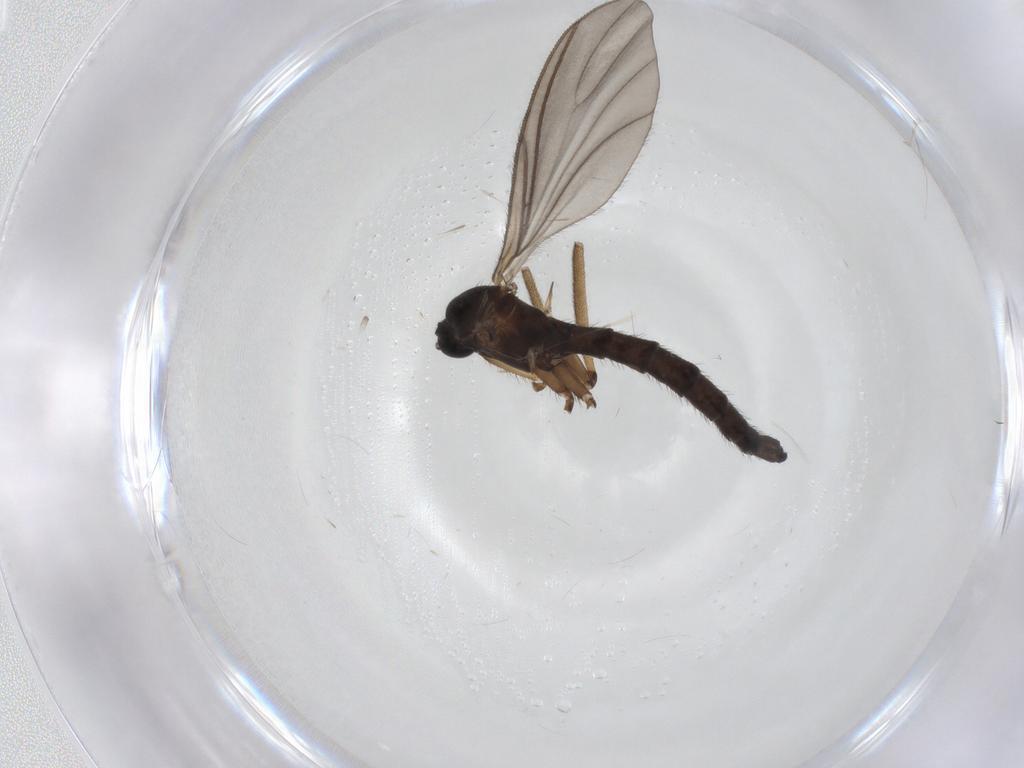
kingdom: Animalia
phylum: Arthropoda
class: Insecta
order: Diptera
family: Sciaridae
